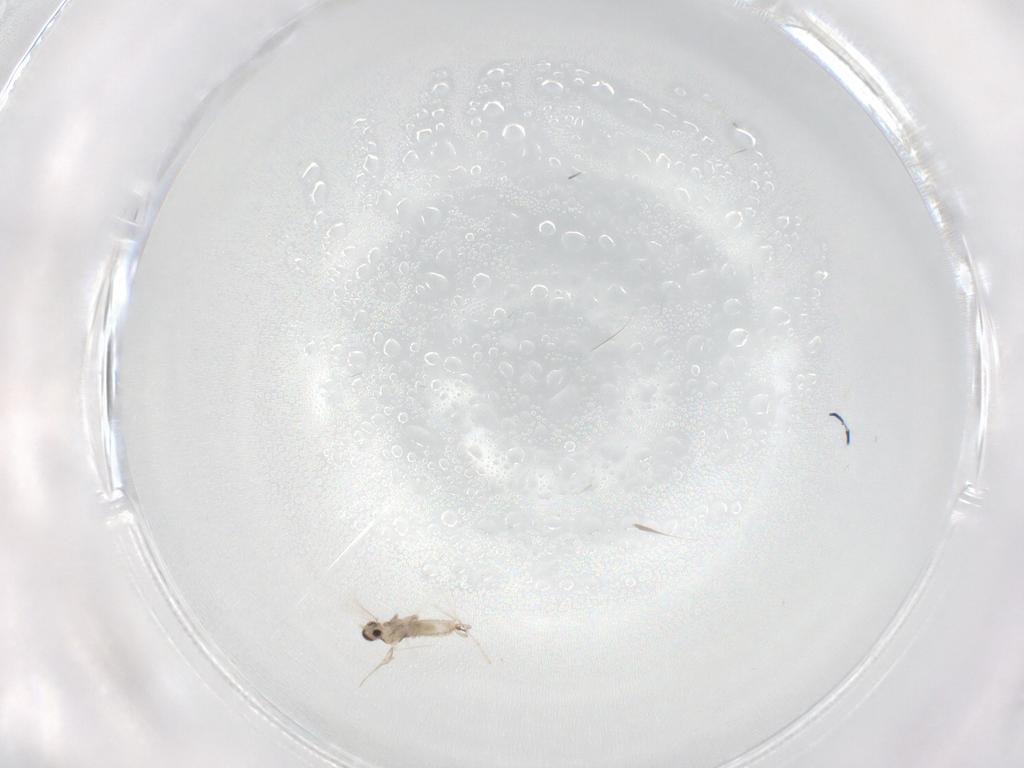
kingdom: Animalia
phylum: Arthropoda
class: Insecta
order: Diptera
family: Cecidomyiidae
